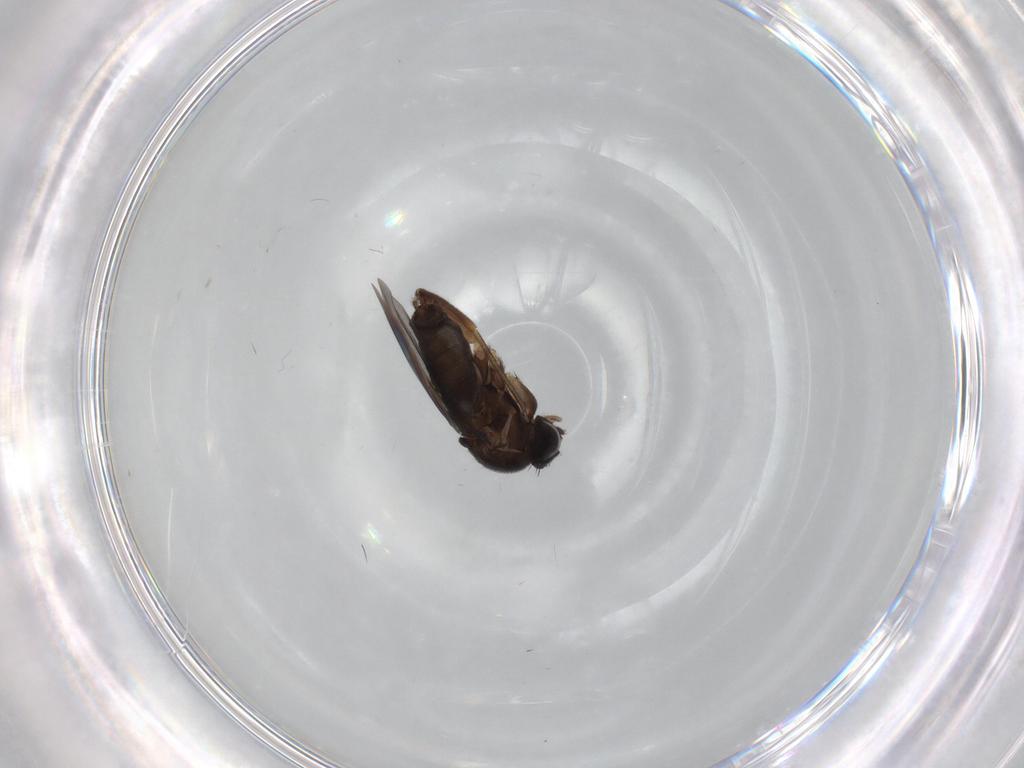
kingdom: Animalia
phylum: Arthropoda
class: Insecta
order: Diptera
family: Phoridae
